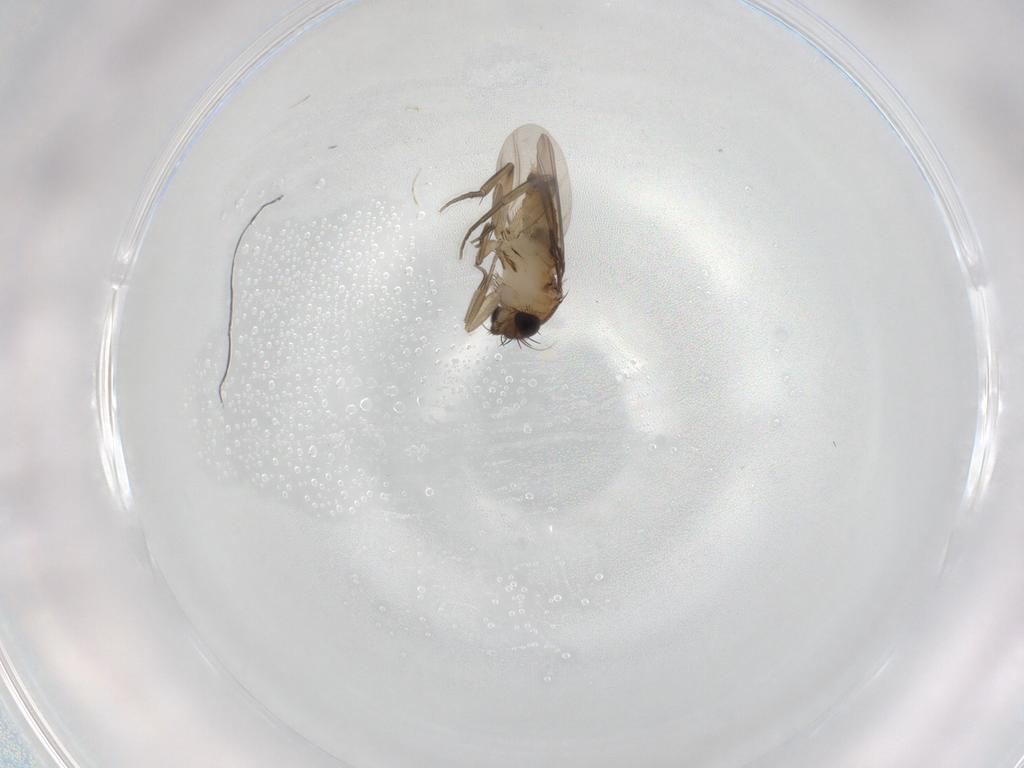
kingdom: Animalia
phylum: Arthropoda
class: Insecta
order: Diptera
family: Phoridae
